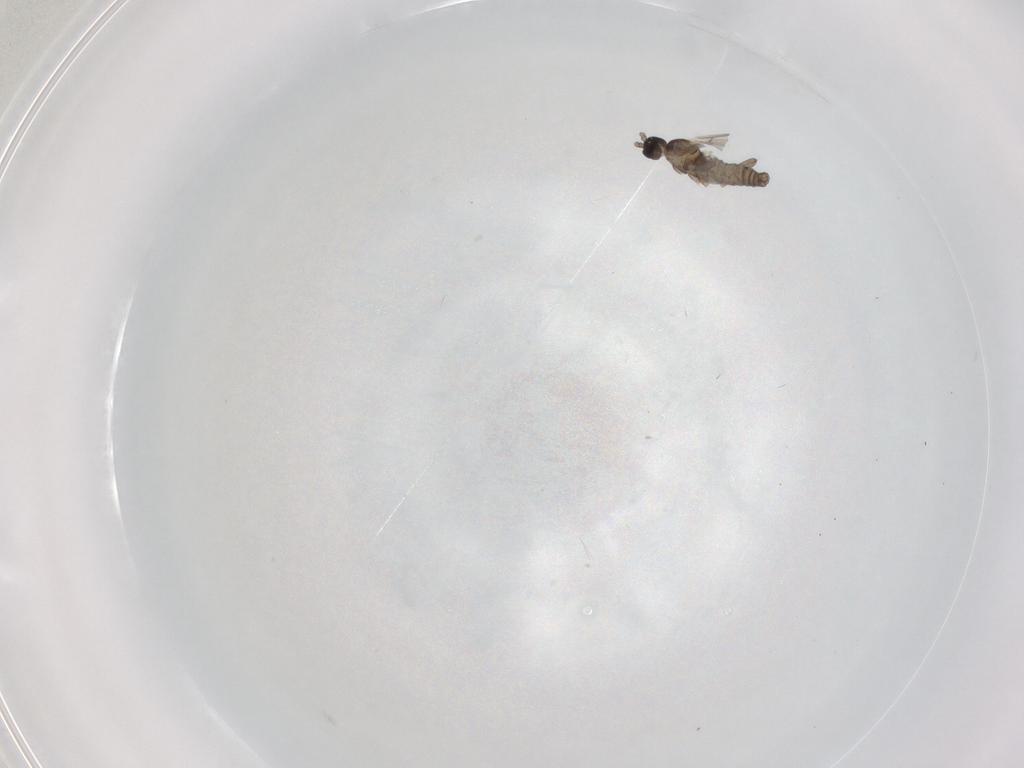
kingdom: Animalia
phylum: Arthropoda
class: Insecta
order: Diptera
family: Cecidomyiidae
